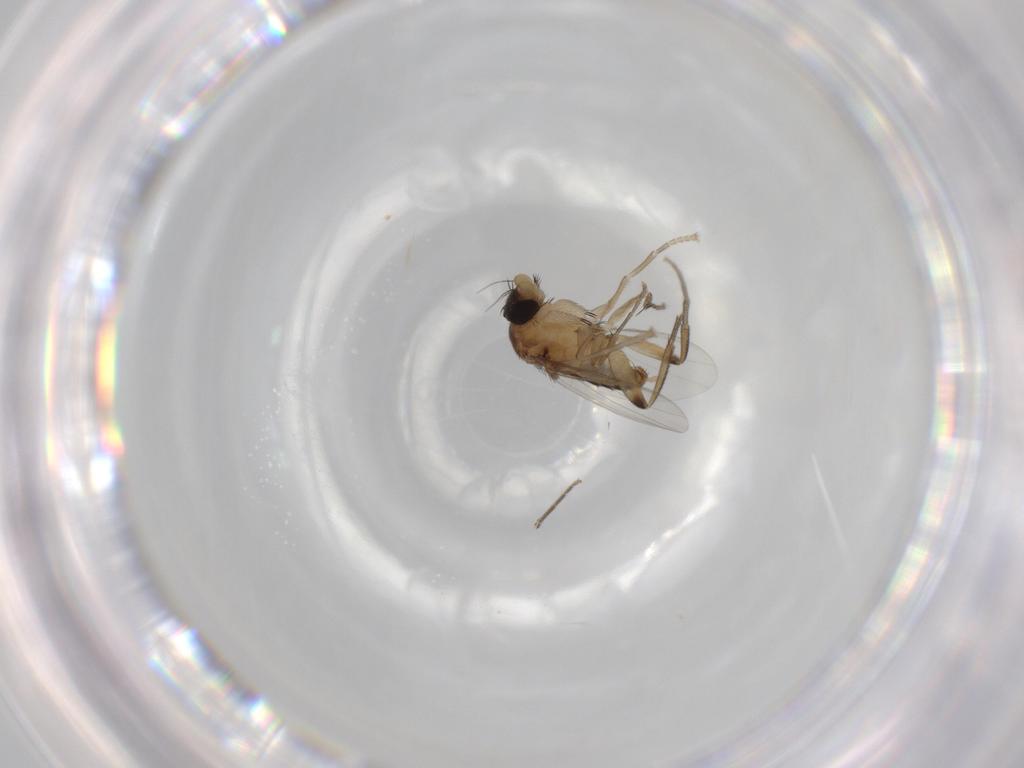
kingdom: Animalia
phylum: Arthropoda
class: Insecta
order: Diptera
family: Phoridae
